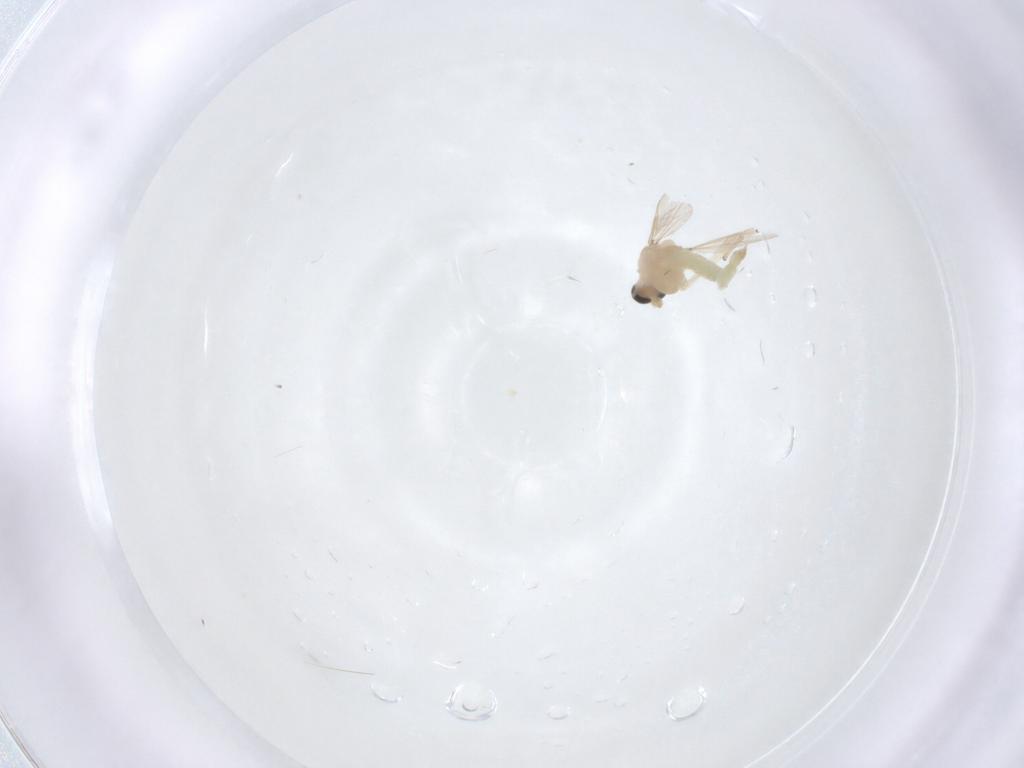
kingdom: Animalia
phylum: Arthropoda
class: Insecta
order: Diptera
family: Chironomidae
